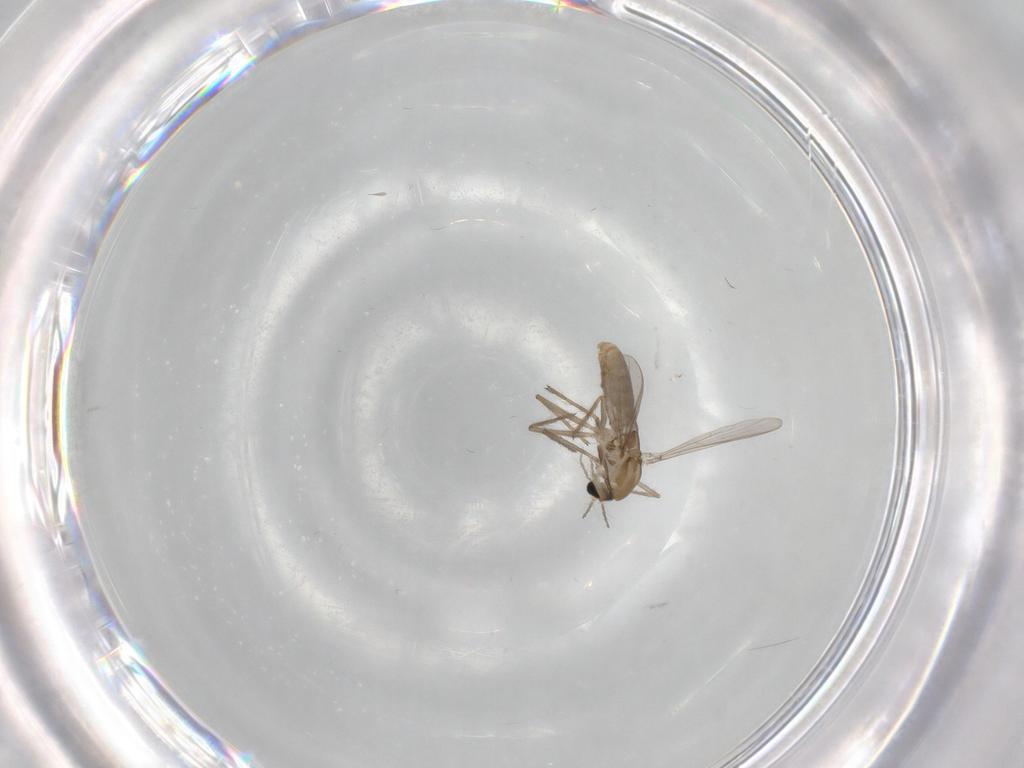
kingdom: Animalia
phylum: Arthropoda
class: Insecta
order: Diptera
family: Chironomidae
